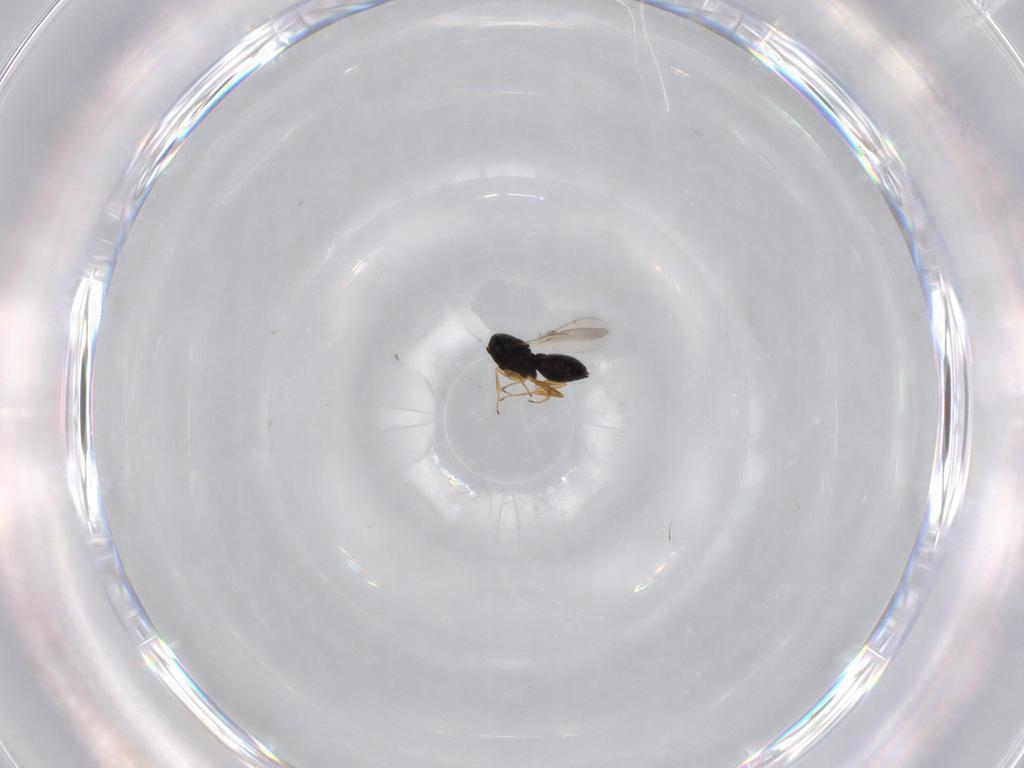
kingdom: Animalia
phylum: Arthropoda
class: Insecta
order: Hymenoptera
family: Scelionidae
